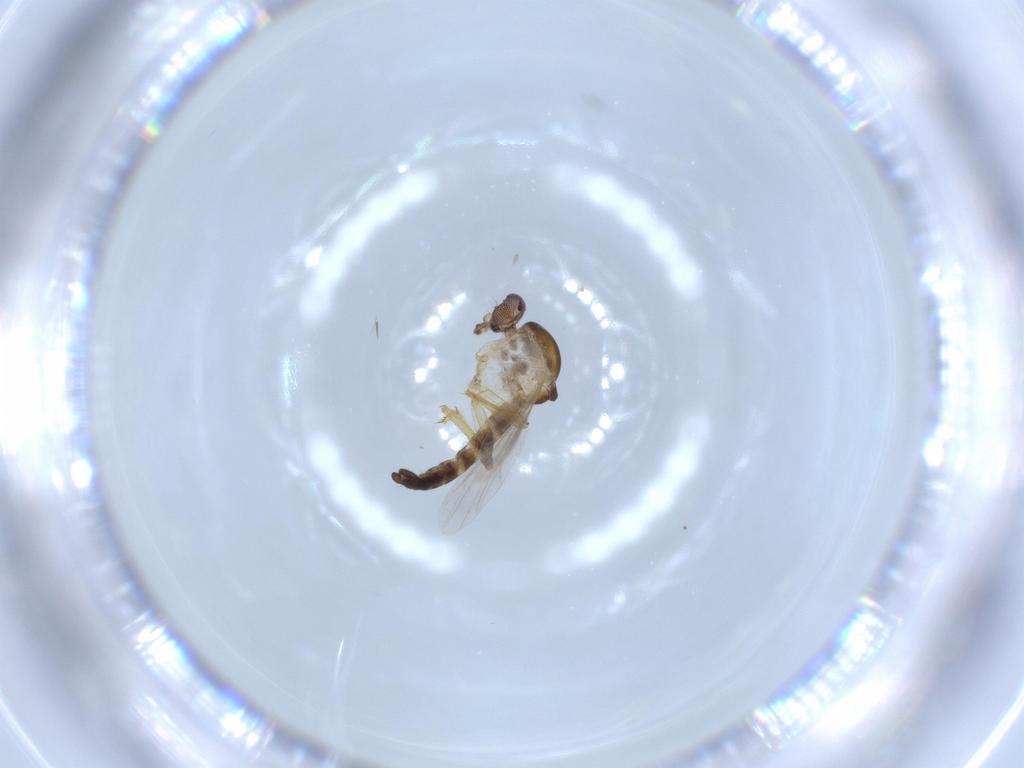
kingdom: Animalia
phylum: Arthropoda
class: Insecta
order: Diptera
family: Ceratopogonidae
